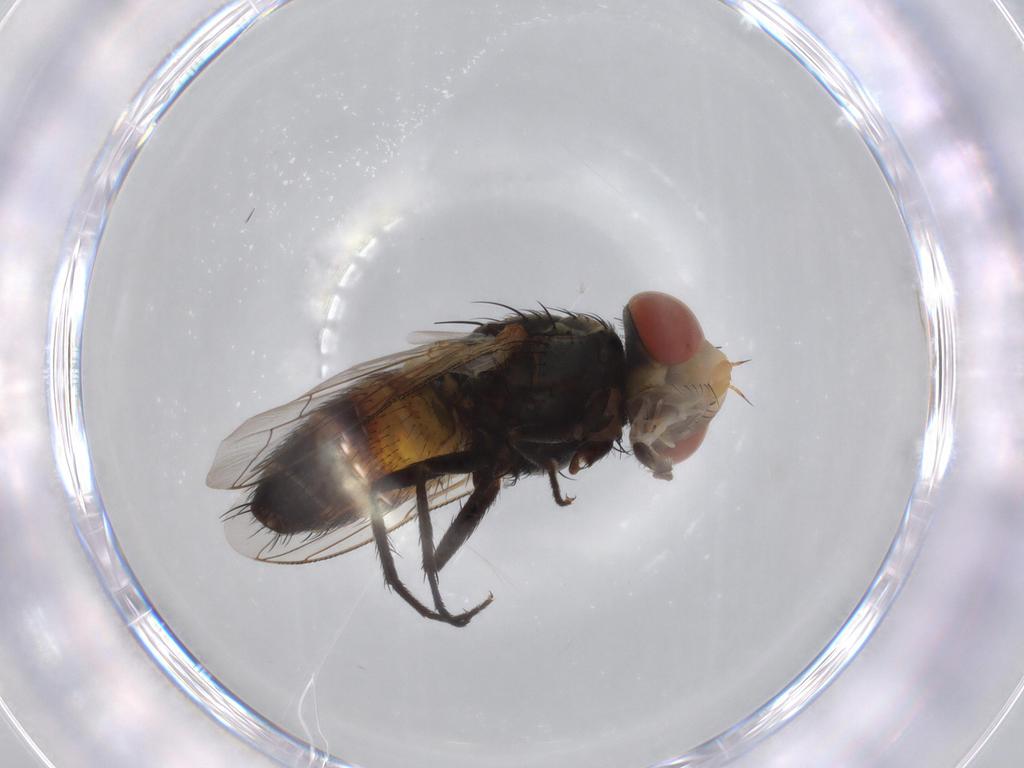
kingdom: Animalia
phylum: Arthropoda
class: Insecta
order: Diptera
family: Sarcophagidae
